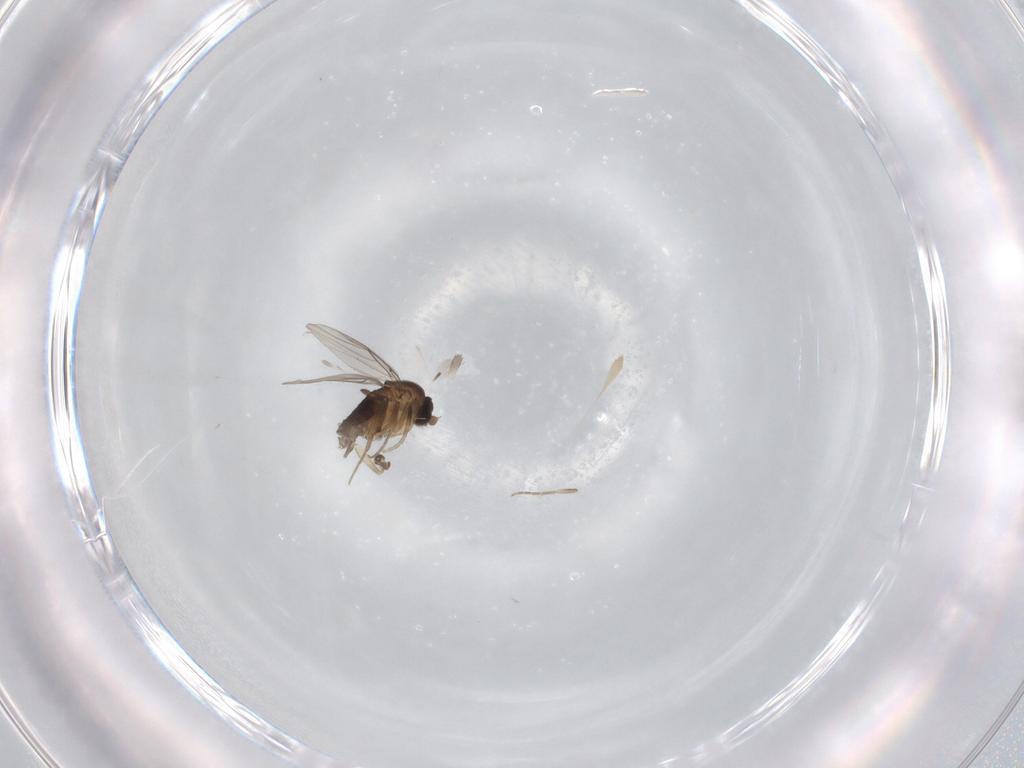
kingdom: Animalia
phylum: Arthropoda
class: Insecta
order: Diptera
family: Phoridae
